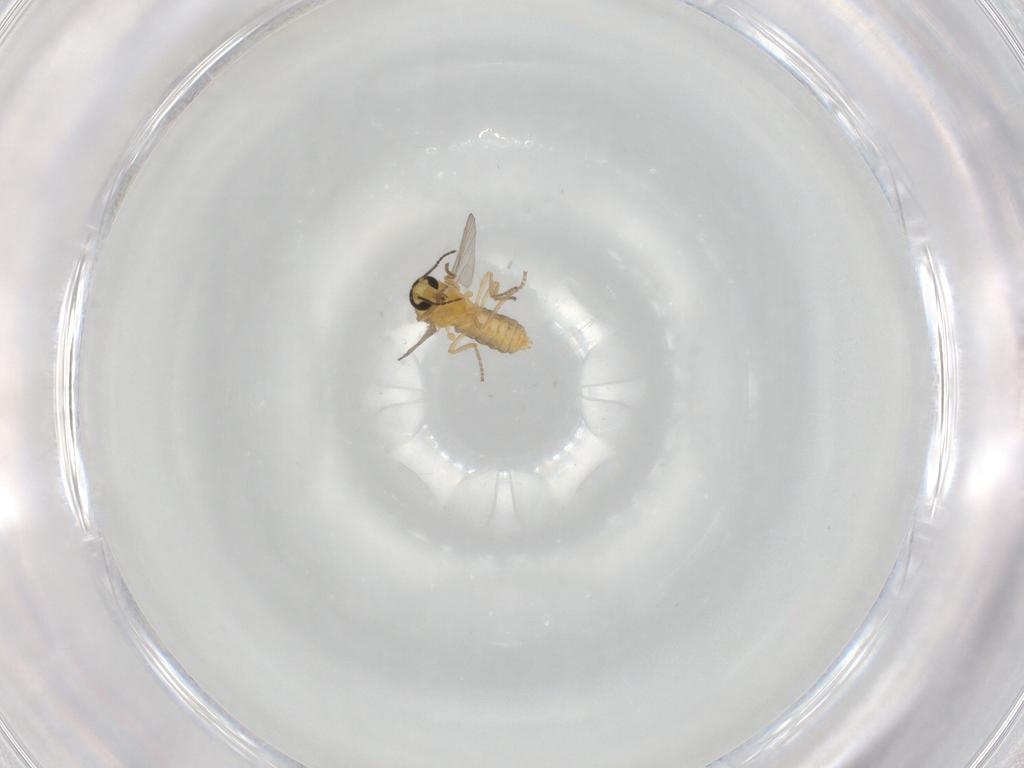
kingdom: Animalia
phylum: Arthropoda
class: Insecta
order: Diptera
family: Ceratopogonidae
